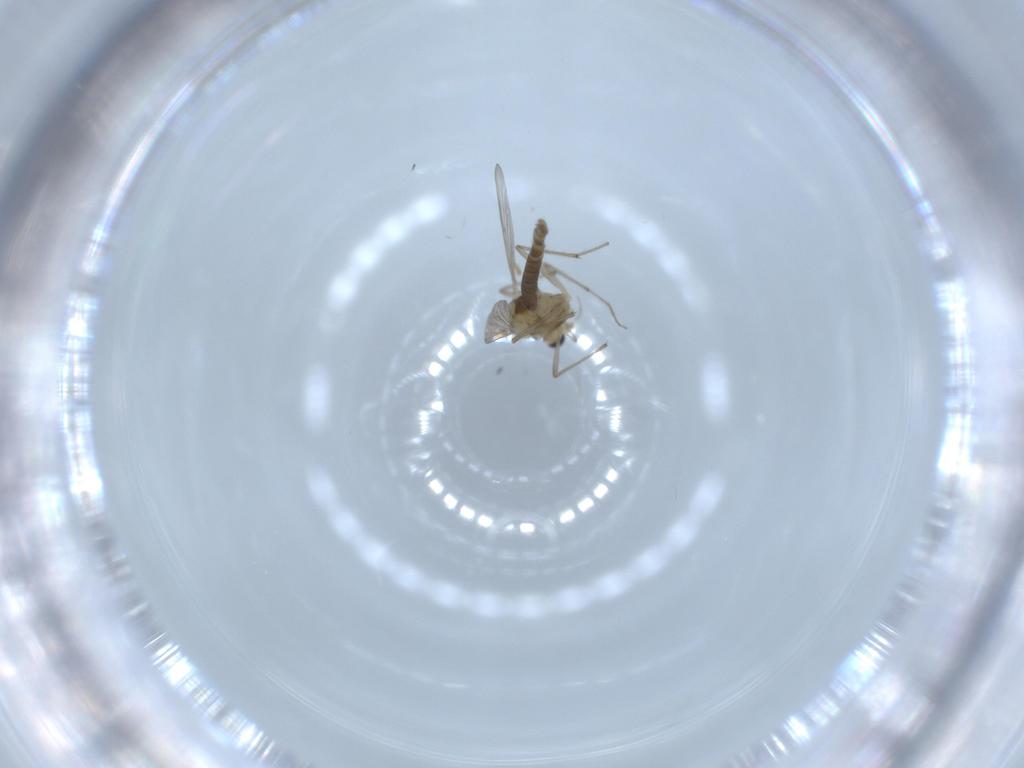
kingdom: Animalia
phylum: Arthropoda
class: Insecta
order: Diptera
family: Chironomidae
